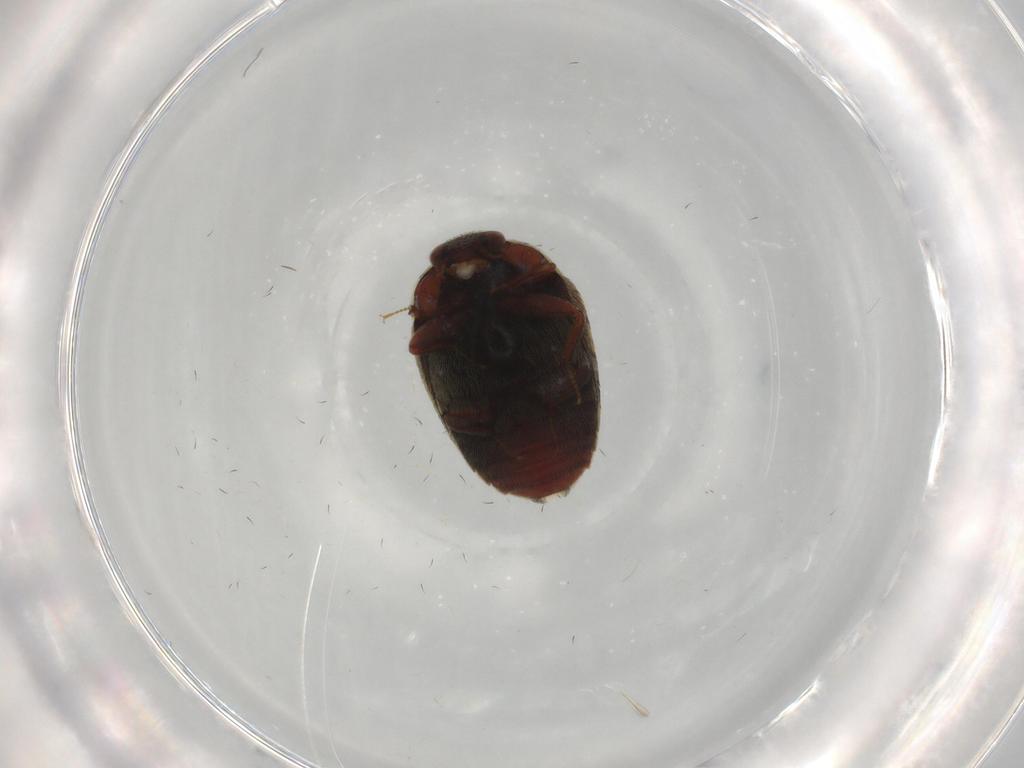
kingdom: Animalia
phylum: Arthropoda
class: Insecta
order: Coleoptera
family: Dermestidae
